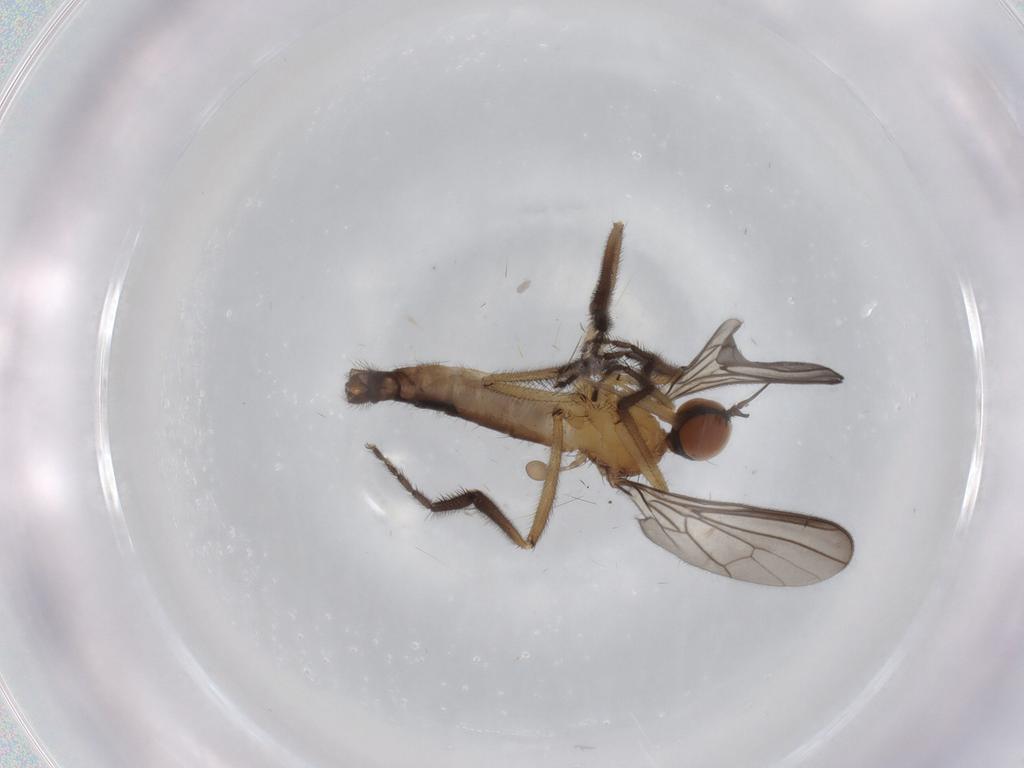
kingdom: Animalia
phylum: Arthropoda
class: Insecta
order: Diptera
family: Empididae
